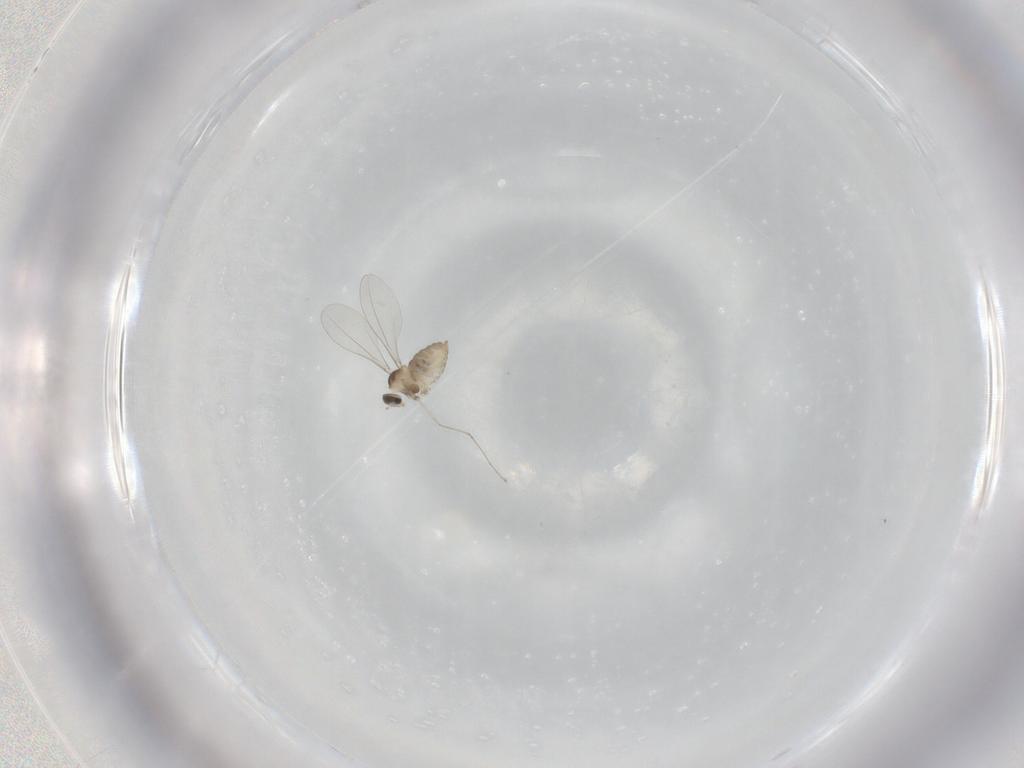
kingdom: Animalia
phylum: Arthropoda
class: Insecta
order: Diptera
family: Cecidomyiidae
